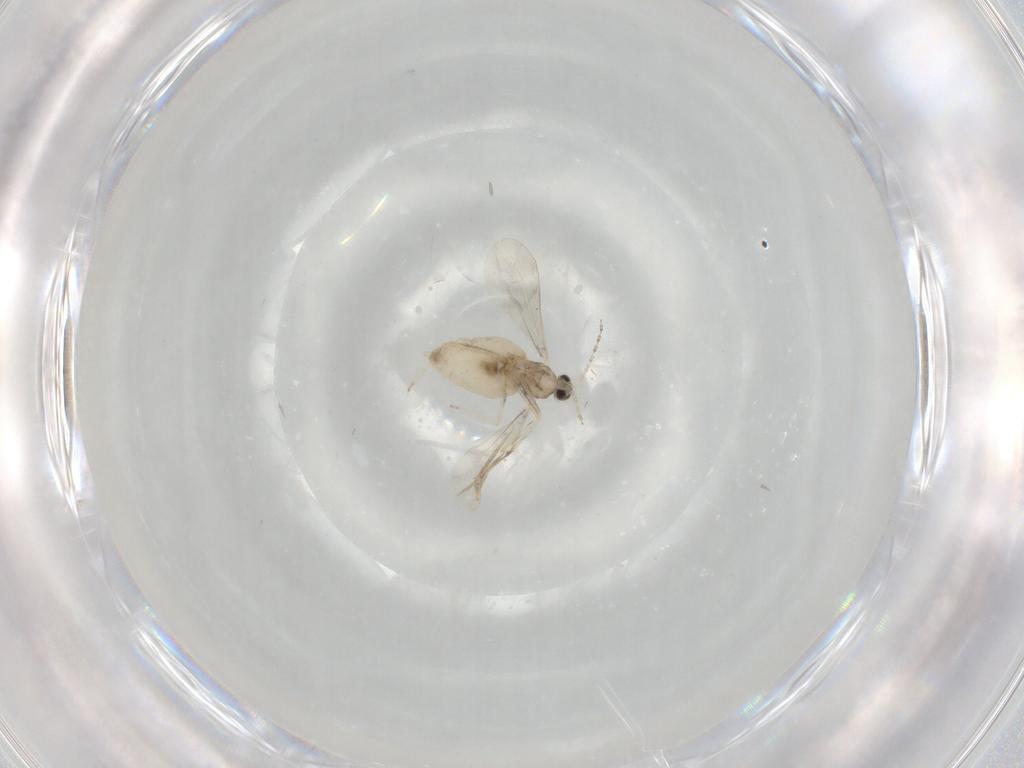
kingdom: Animalia
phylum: Arthropoda
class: Insecta
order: Diptera
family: Cecidomyiidae
